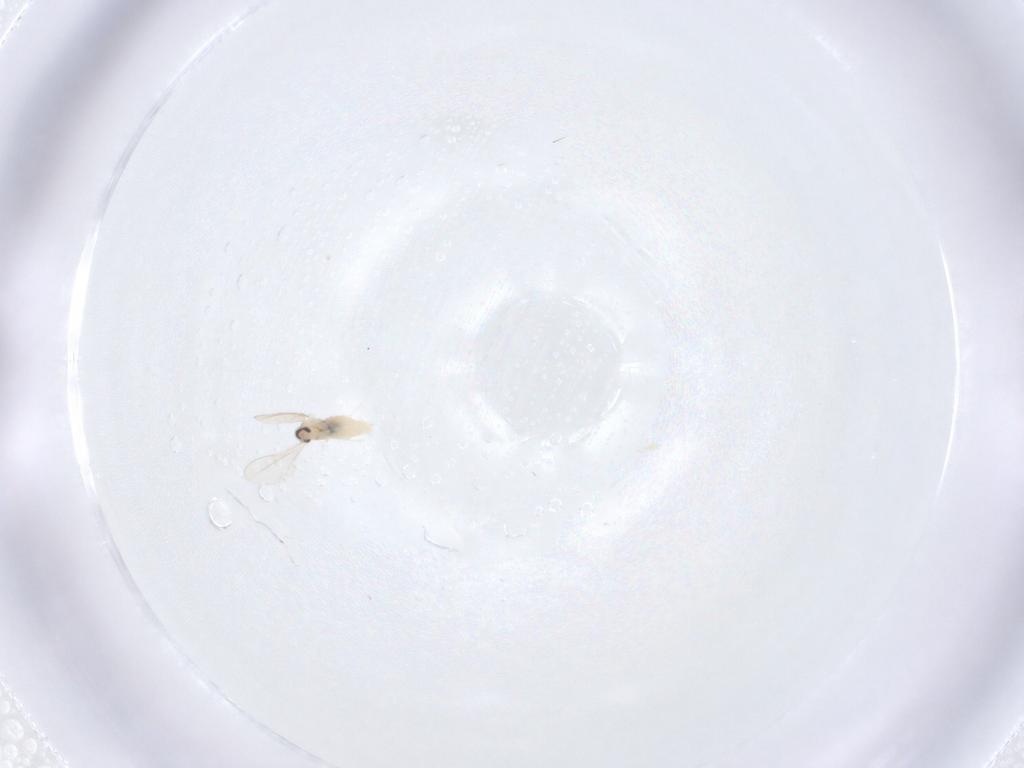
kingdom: Animalia
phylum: Arthropoda
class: Insecta
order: Diptera
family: Cecidomyiidae
